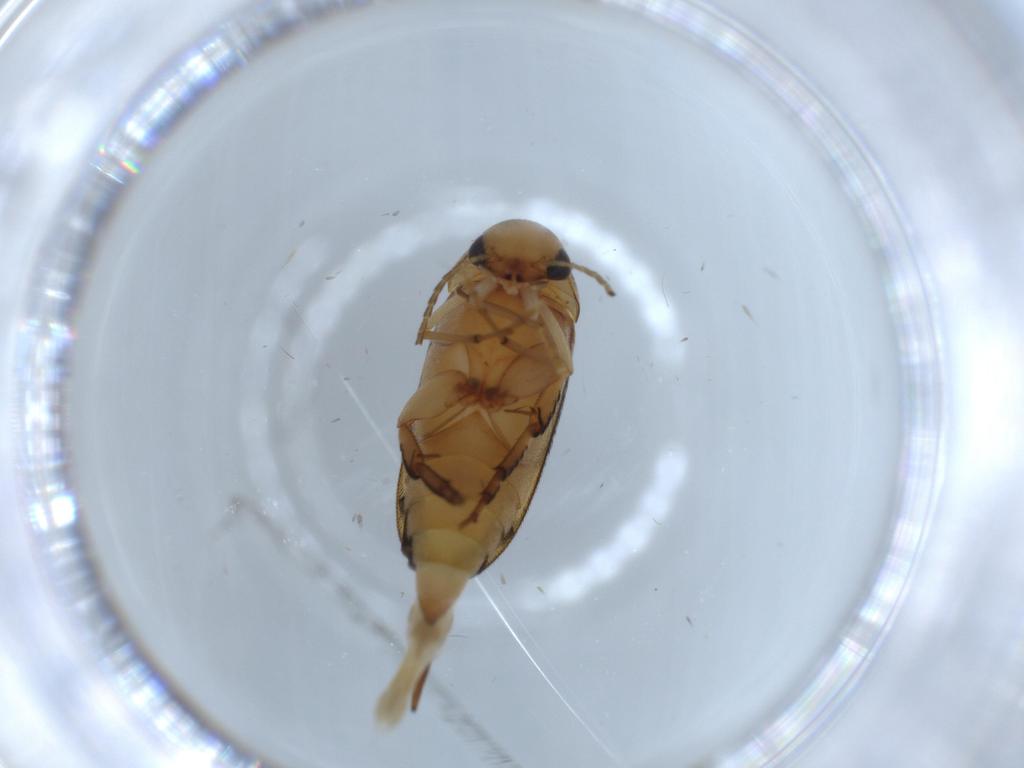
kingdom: Animalia
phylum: Arthropoda
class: Insecta
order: Coleoptera
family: Mordellidae
